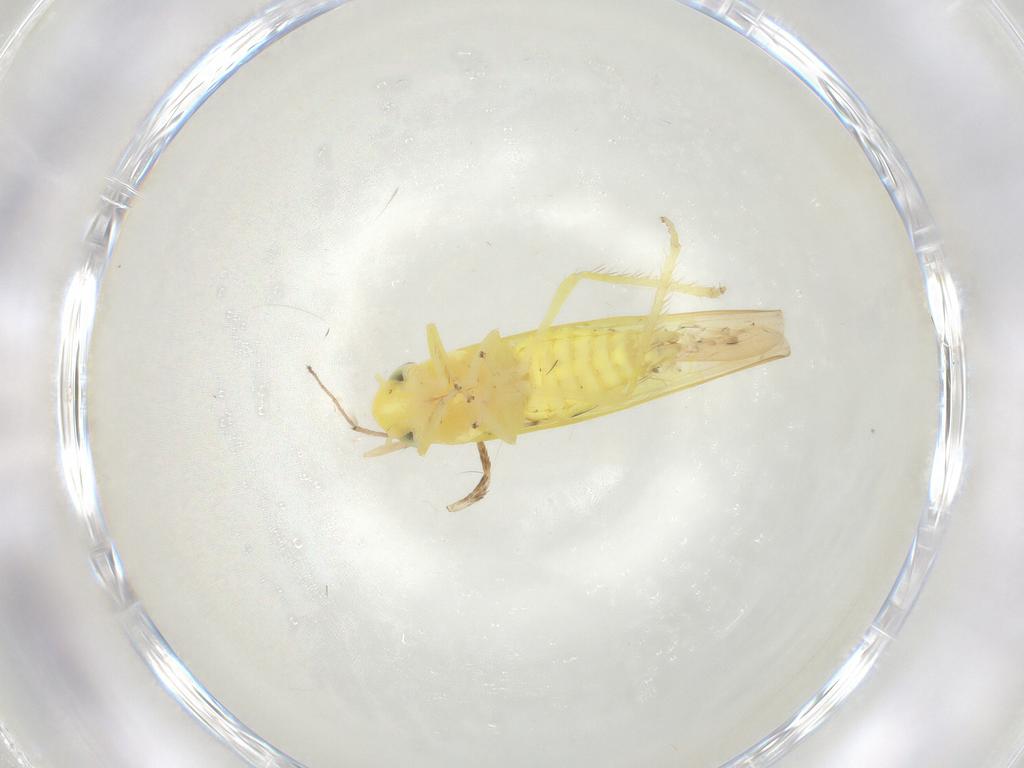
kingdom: Animalia
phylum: Arthropoda
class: Insecta
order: Hemiptera
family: Cicadellidae
